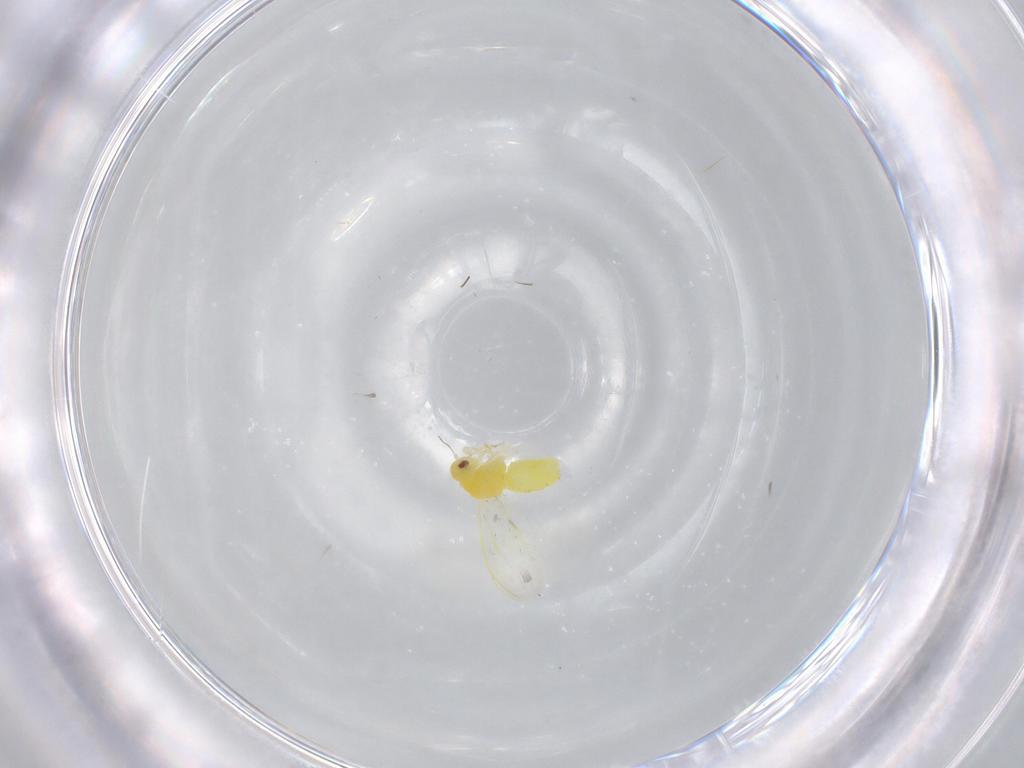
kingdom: Animalia
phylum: Arthropoda
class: Insecta
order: Hemiptera
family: Aleyrodidae
